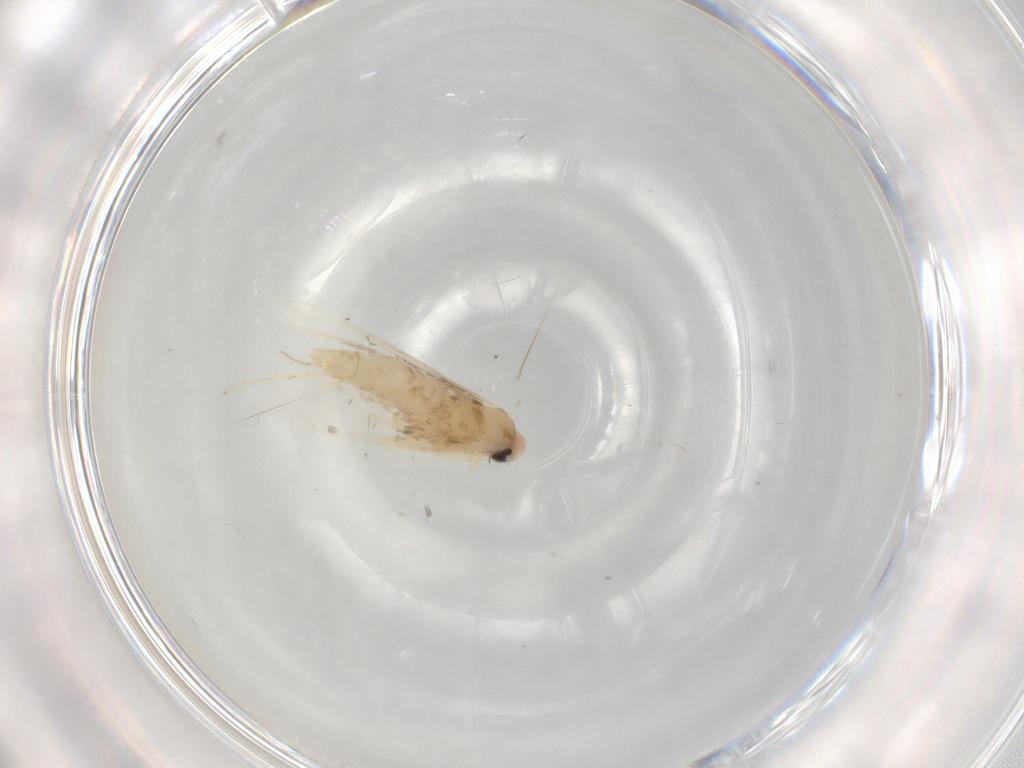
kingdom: Animalia
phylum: Arthropoda
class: Insecta
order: Lepidoptera
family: Gracillariidae
